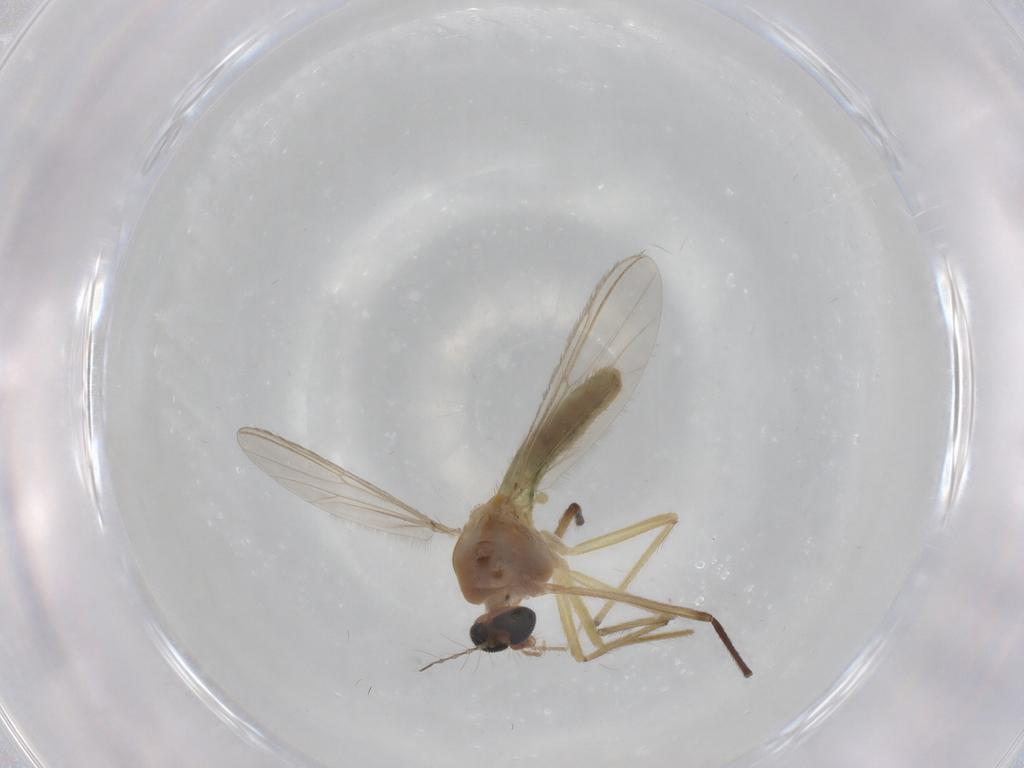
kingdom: Animalia
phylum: Arthropoda
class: Insecta
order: Diptera
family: Chironomidae
